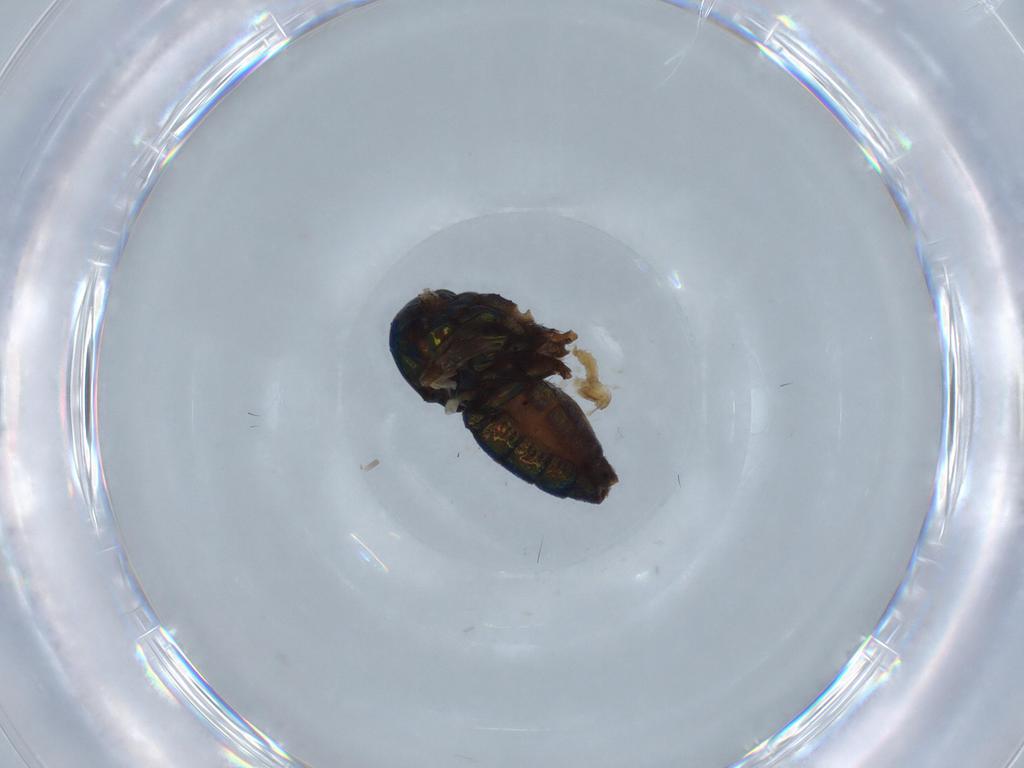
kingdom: Animalia
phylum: Arthropoda
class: Insecta
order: Diptera
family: Cecidomyiidae
